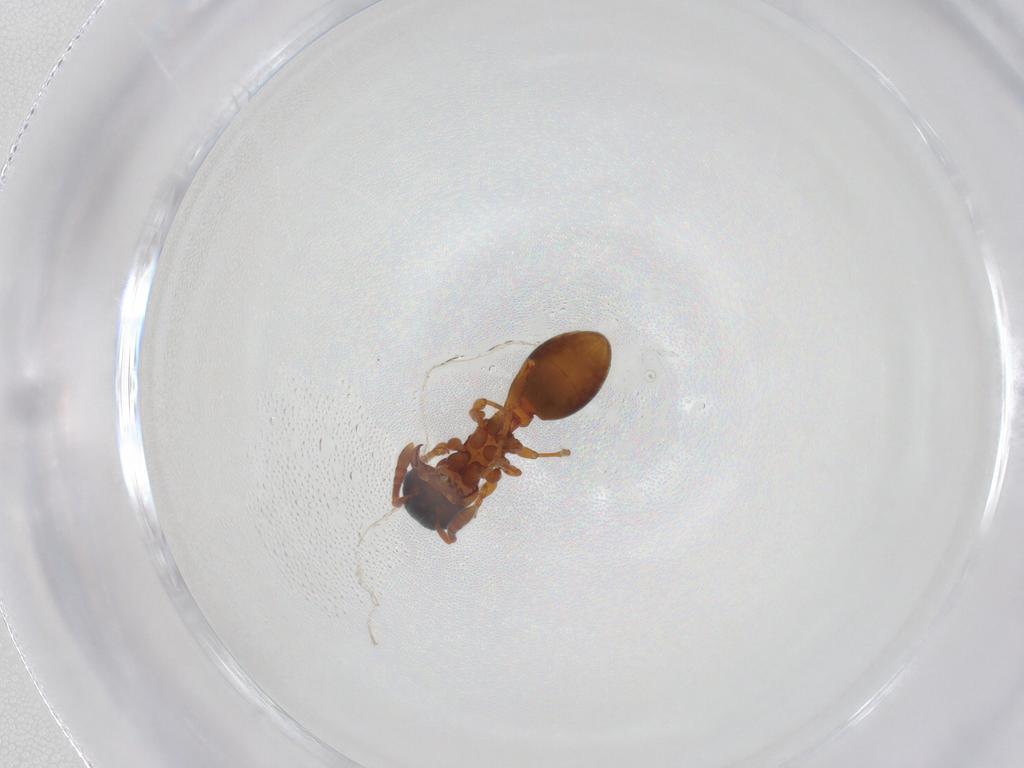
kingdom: Animalia
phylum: Arthropoda
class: Insecta
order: Hymenoptera
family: Formicidae
